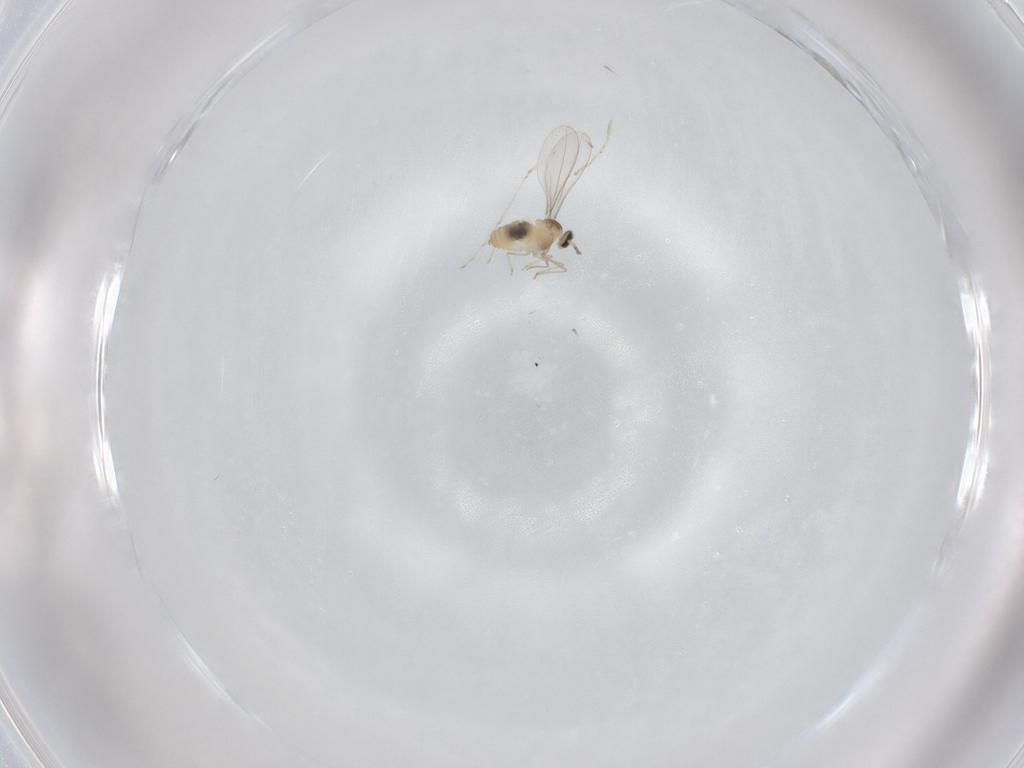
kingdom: Animalia
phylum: Arthropoda
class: Insecta
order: Diptera
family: Cecidomyiidae
